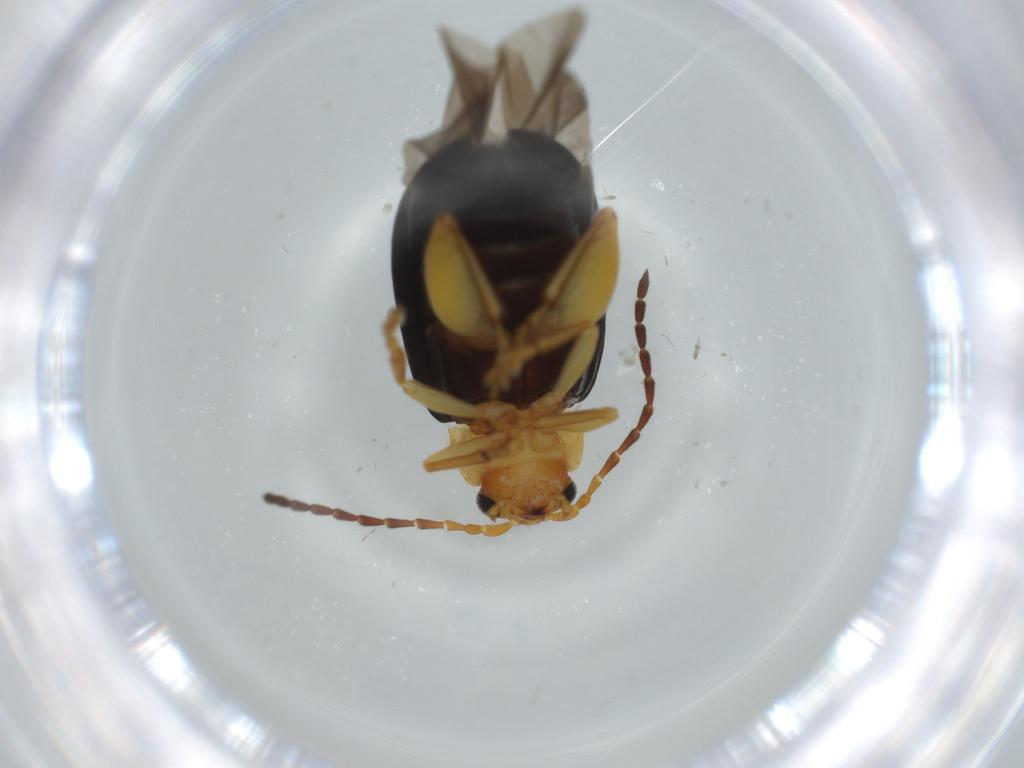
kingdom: Animalia
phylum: Arthropoda
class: Insecta
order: Coleoptera
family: Chrysomelidae
